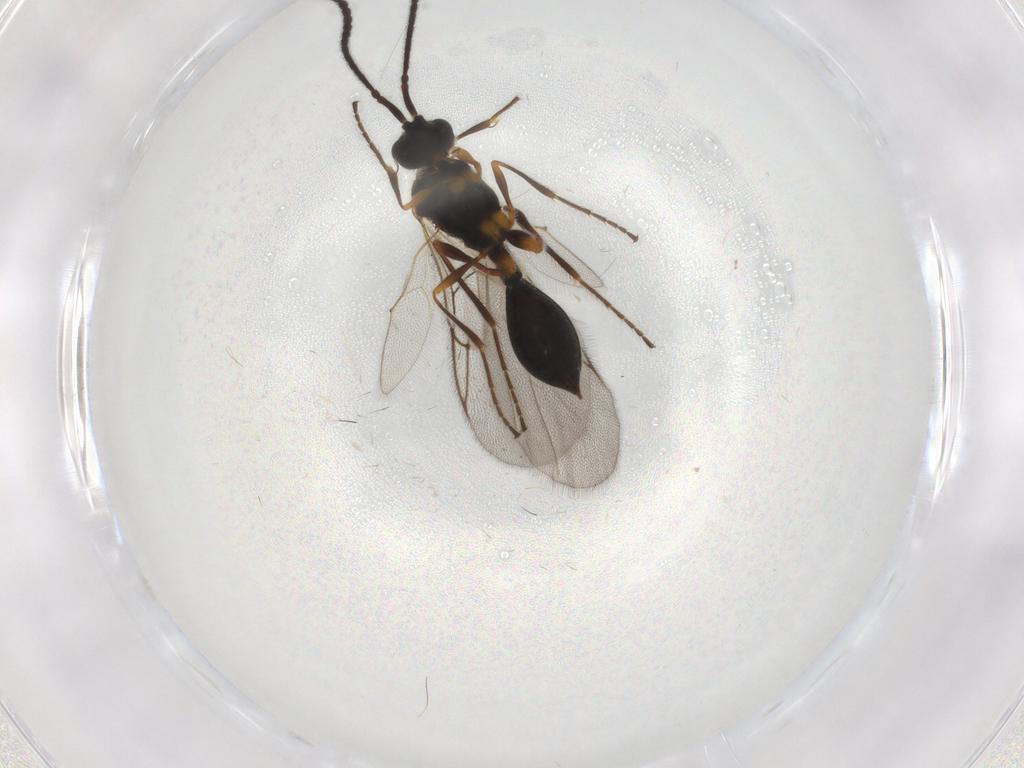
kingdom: Animalia
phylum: Arthropoda
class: Insecta
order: Hymenoptera
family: Diapriidae
